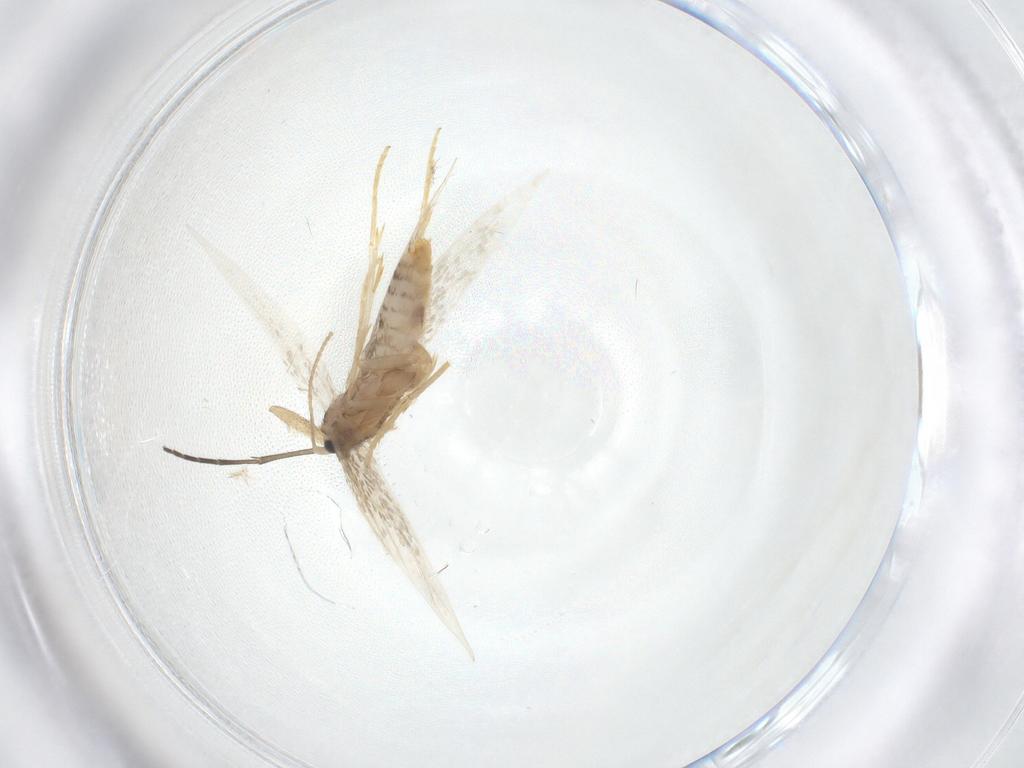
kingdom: Animalia
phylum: Arthropoda
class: Insecta
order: Lepidoptera
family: Nepticulidae
